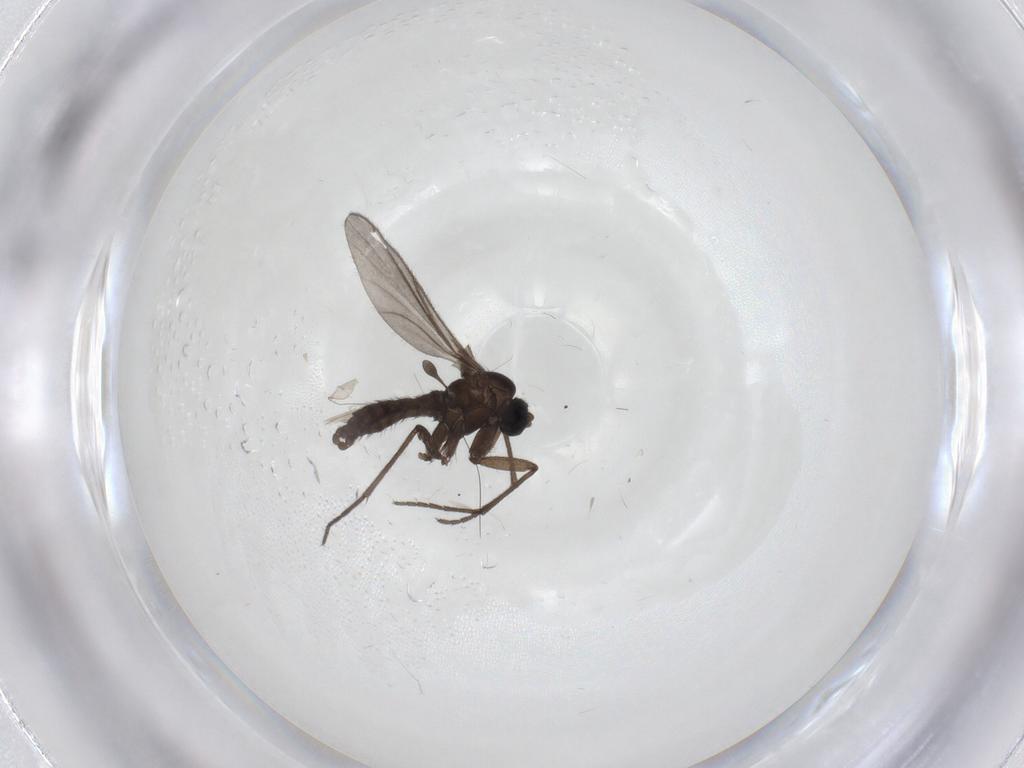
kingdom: Animalia
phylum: Arthropoda
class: Insecta
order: Diptera
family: Sciaridae
